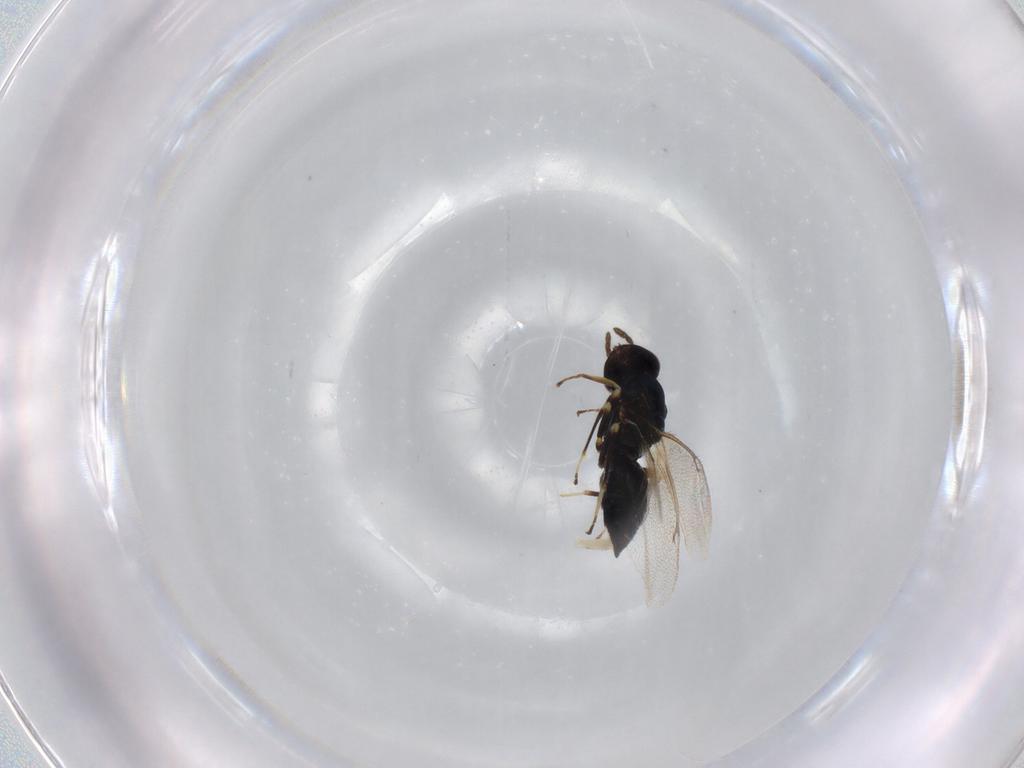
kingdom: Animalia
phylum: Arthropoda
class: Insecta
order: Hymenoptera
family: Eulophidae
